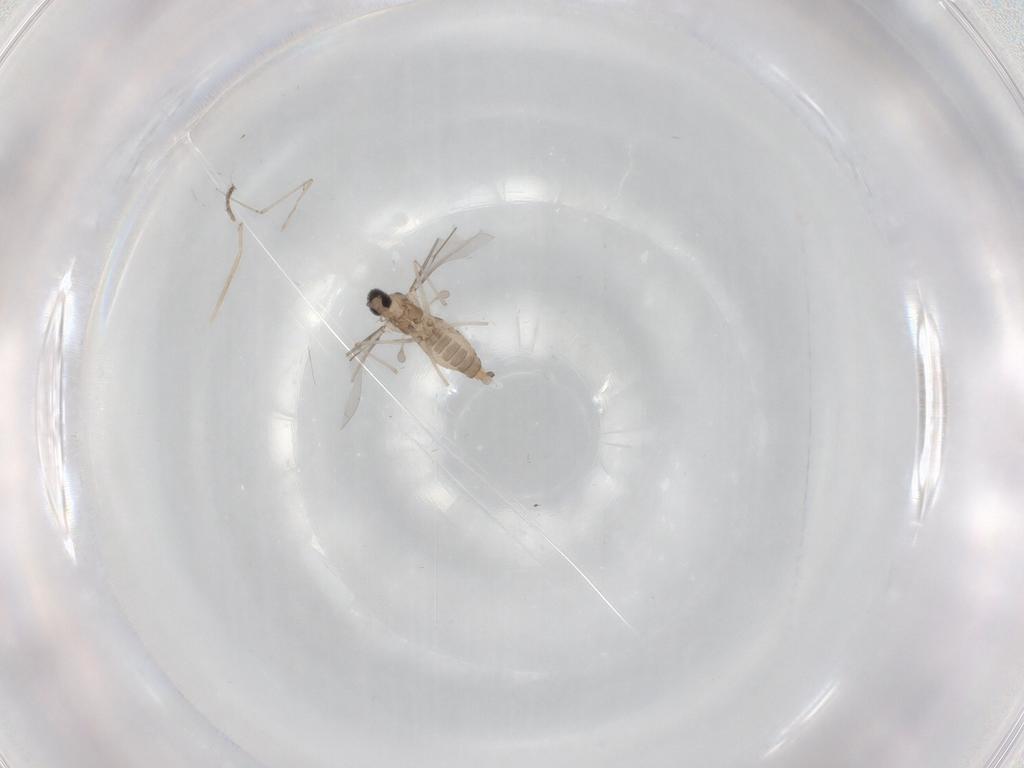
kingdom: Animalia
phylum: Arthropoda
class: Insecta
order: Diptera
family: Cecidomyiidae
